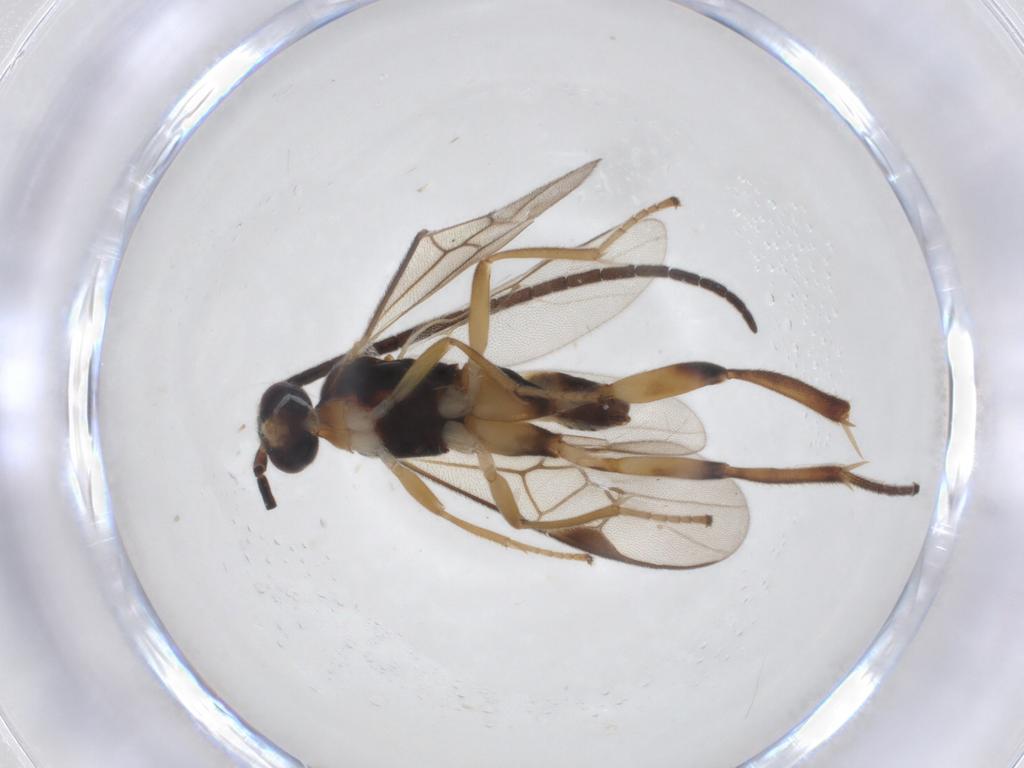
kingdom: Animalia
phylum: Arthropoda
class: Insecta
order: Hymenoptera
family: Braconidae
